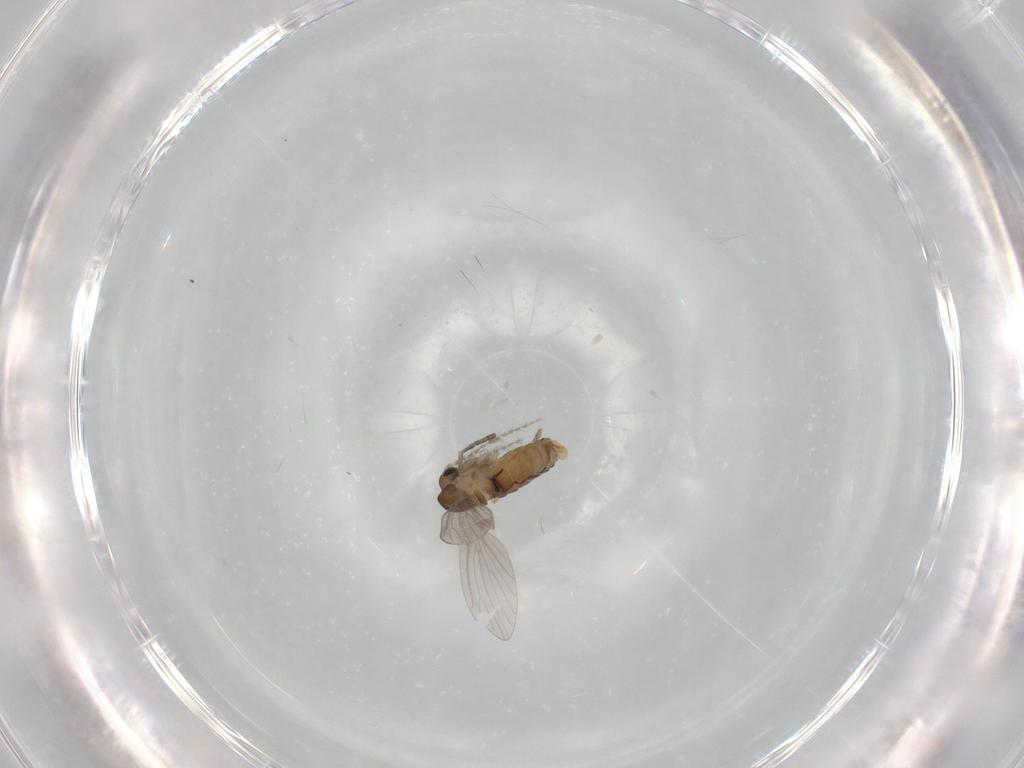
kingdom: Animalia
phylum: Arthropoda
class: Insecta
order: Diptera
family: Psychodidae
